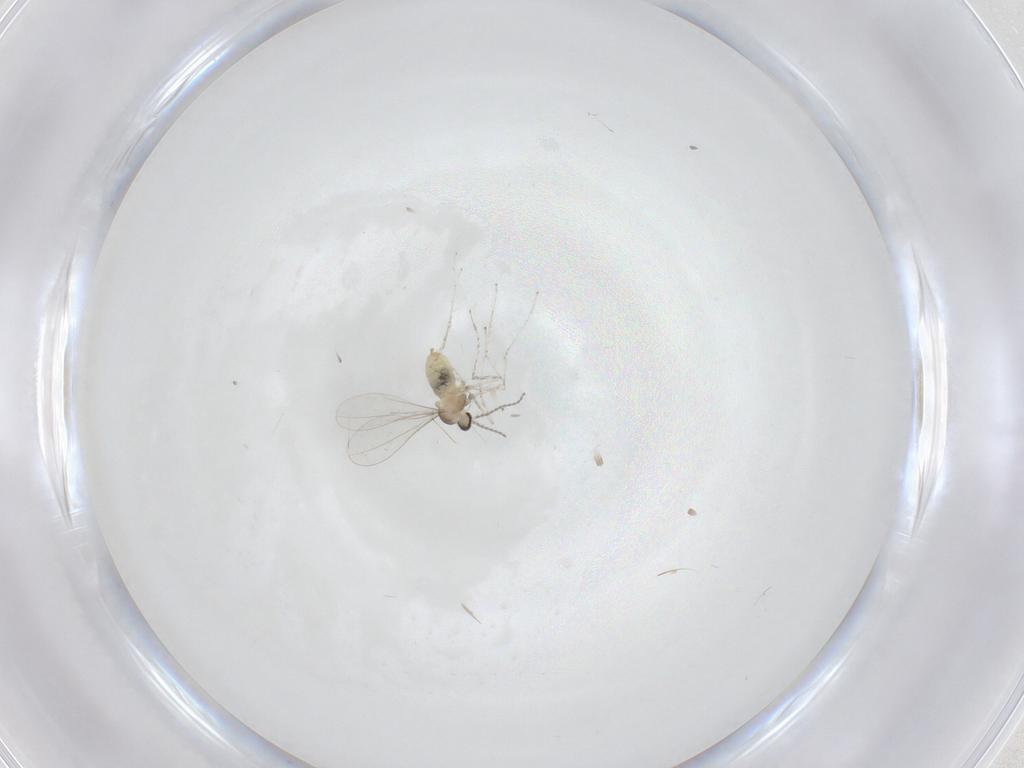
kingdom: Animalia
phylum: Arthropoda
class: Insecta
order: Diptera
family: Cecidomyiidae
